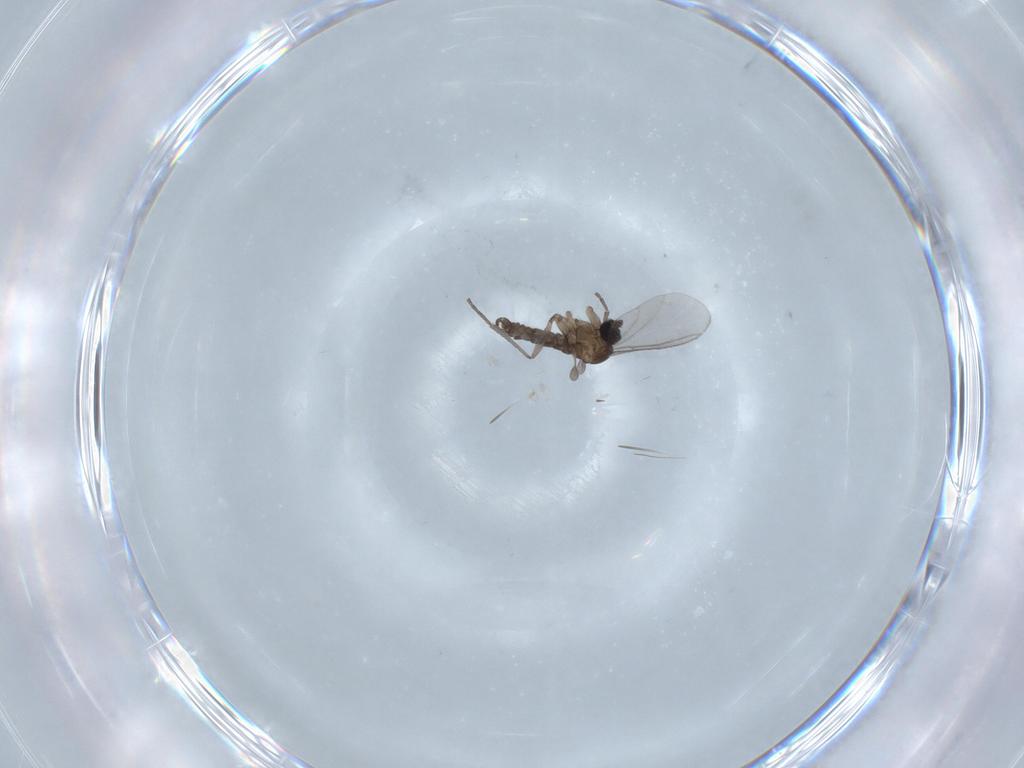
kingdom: Animalia
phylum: Arthropoda
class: Insecta
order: Diptera
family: Sciaridae
